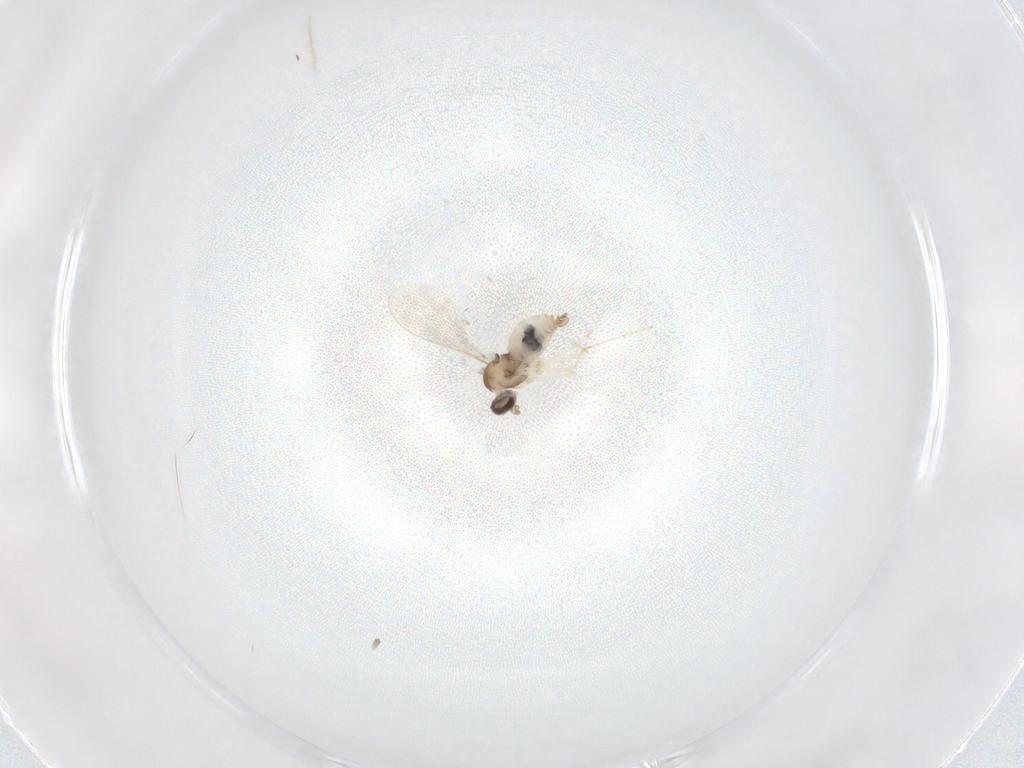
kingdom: Animalia
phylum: Arthropoda
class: Insecta
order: Diptera
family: Cecidomyiidae
